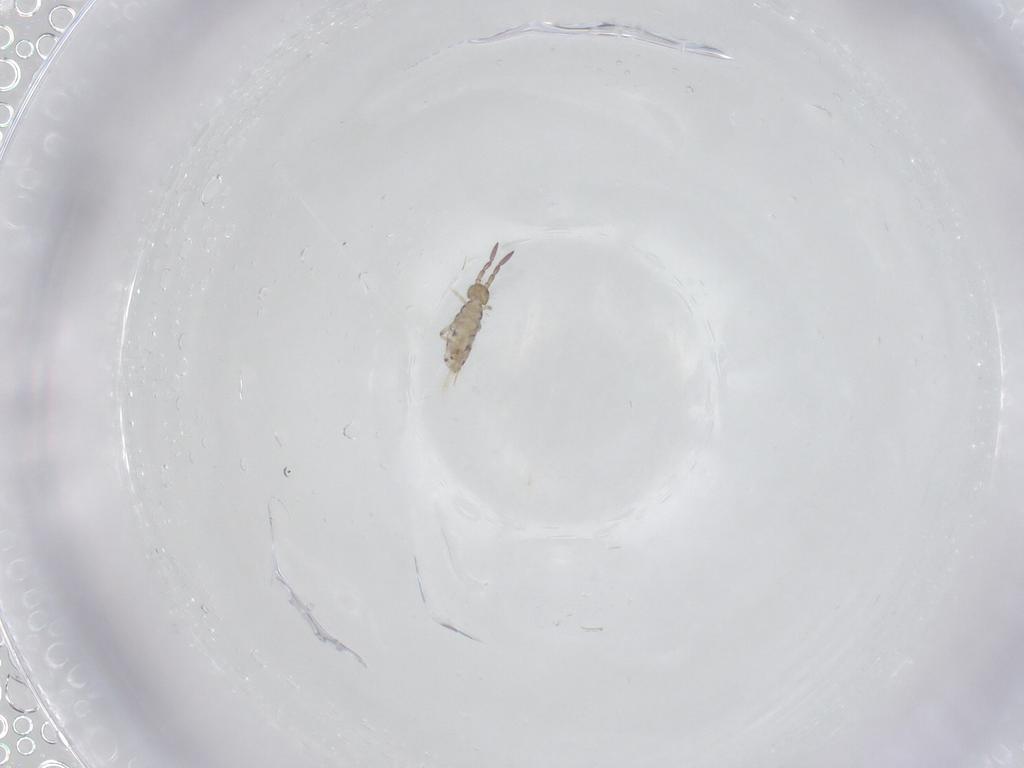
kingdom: Animalia
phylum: Arthropoda
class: Collembola
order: Entomobryomorpha
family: Entomobryidae
